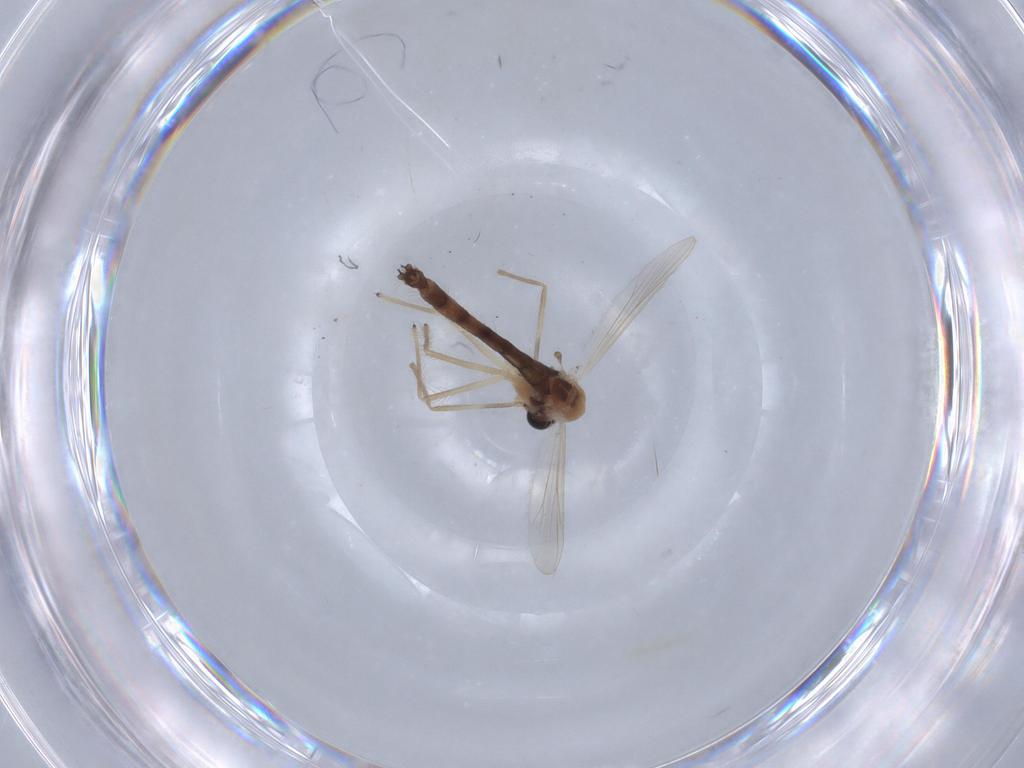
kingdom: Animalia
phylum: Arthropoda
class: Insecta
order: Diptera
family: Chironomidae
